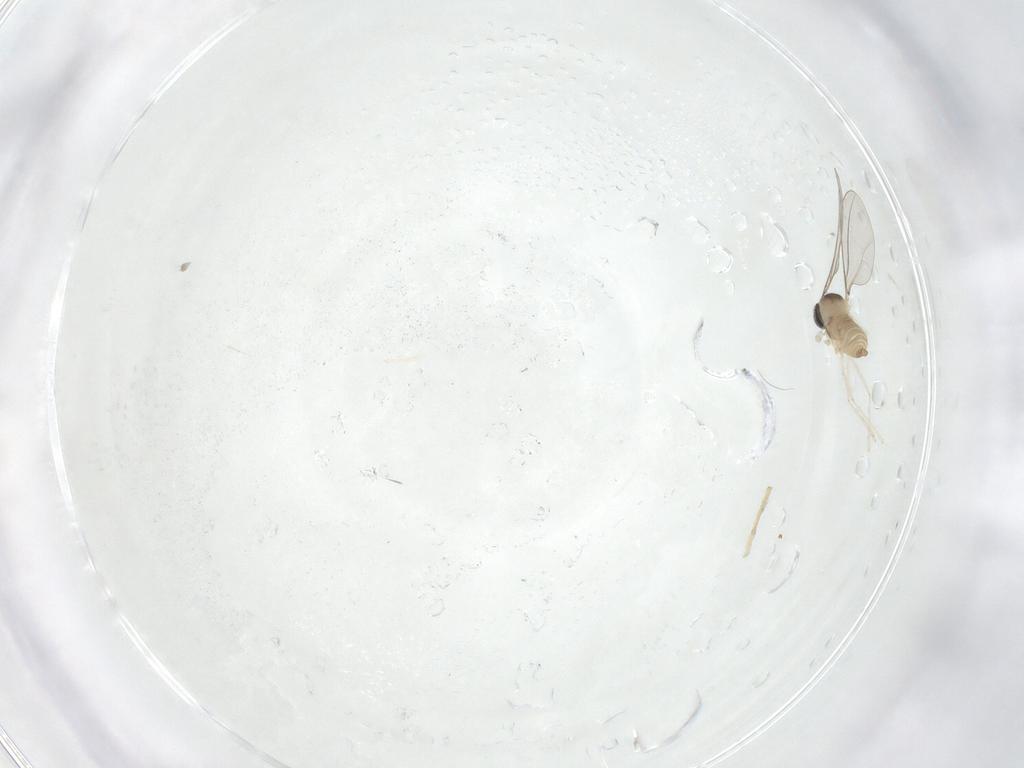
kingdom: Animalia
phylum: Arthropoda
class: Insecta
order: Diptera
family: Cecidomyiidae
